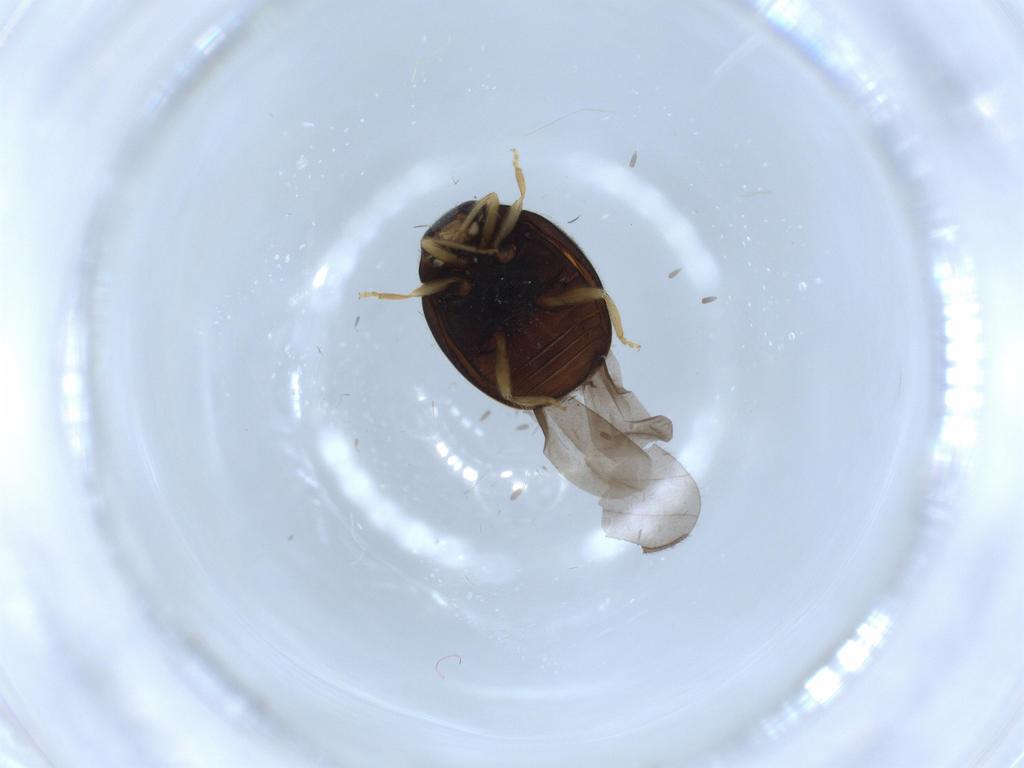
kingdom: Animalia
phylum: Arthropoda
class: Insecta
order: Coleoptera
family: Coccinellidae
